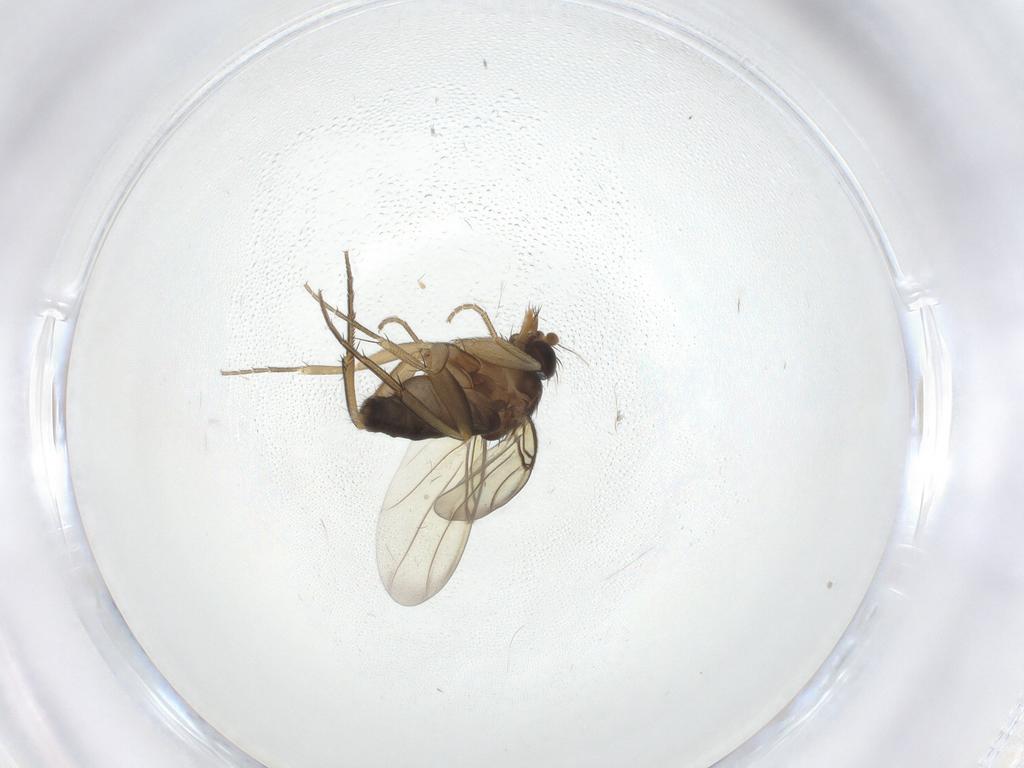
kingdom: Animalia
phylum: Arthropoda
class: Insecta
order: Diptera
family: Phoridae
